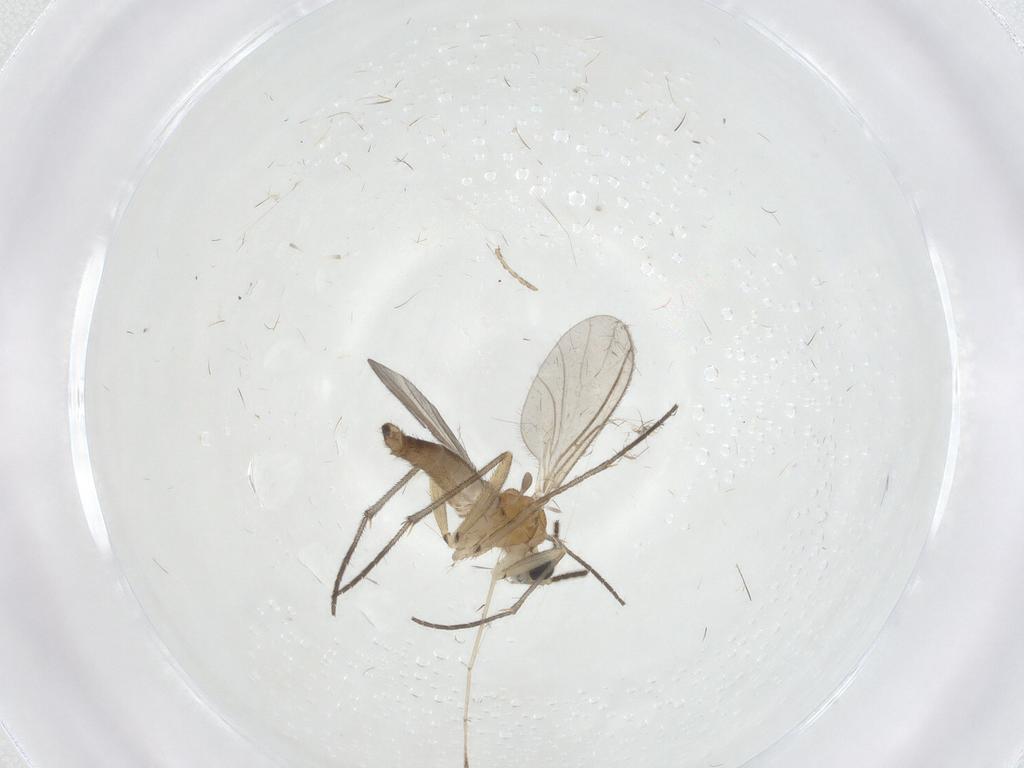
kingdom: Animalia
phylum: Arthropoda
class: Insecta
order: Diptera
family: Sciaridae
